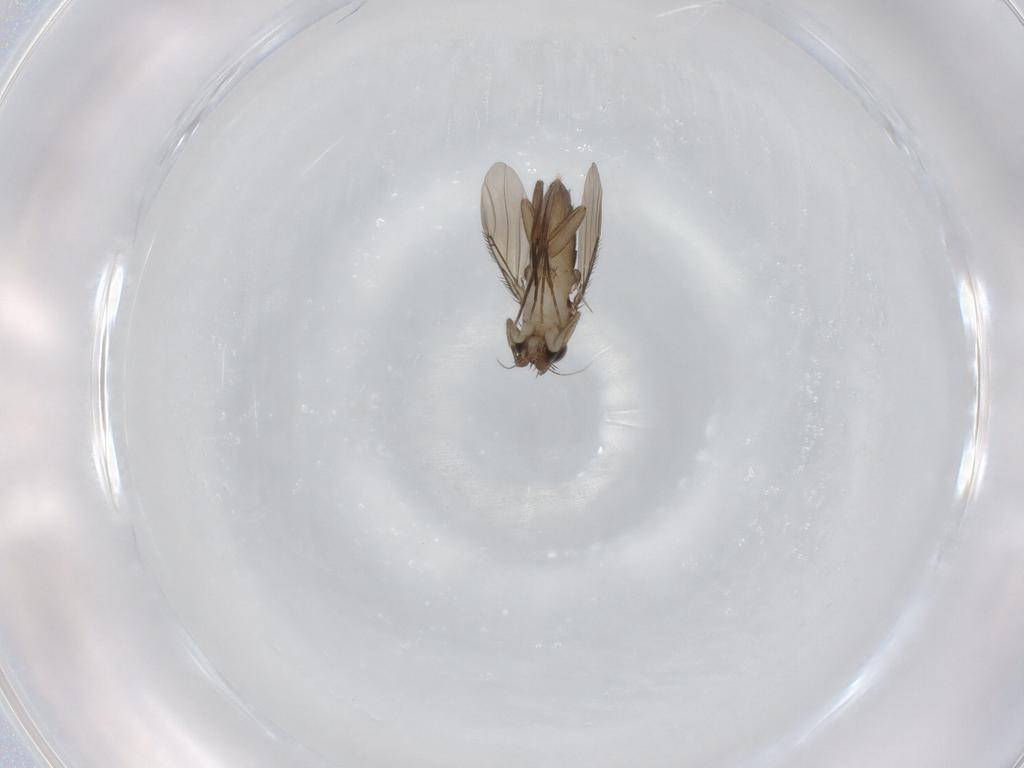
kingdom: Animalia
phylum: Arthropoda
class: Insecta
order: Diptera
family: Phoridae
